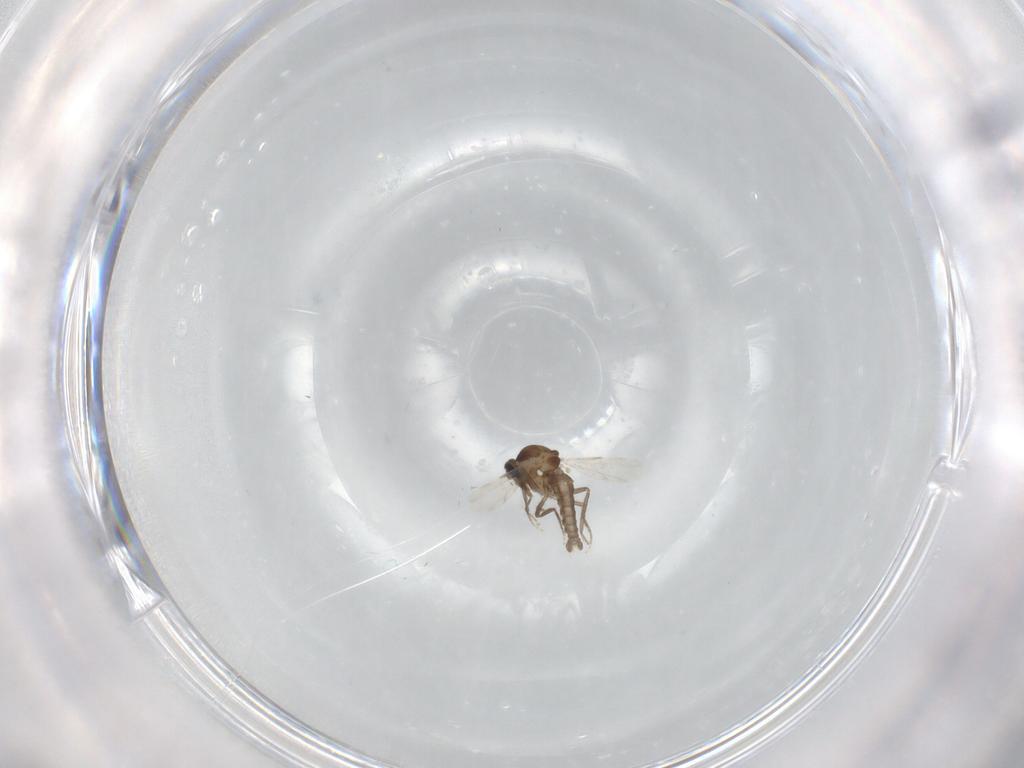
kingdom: Animalia
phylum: Arthropoda
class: Insecta
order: Diptera
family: Ceratopogonidae
